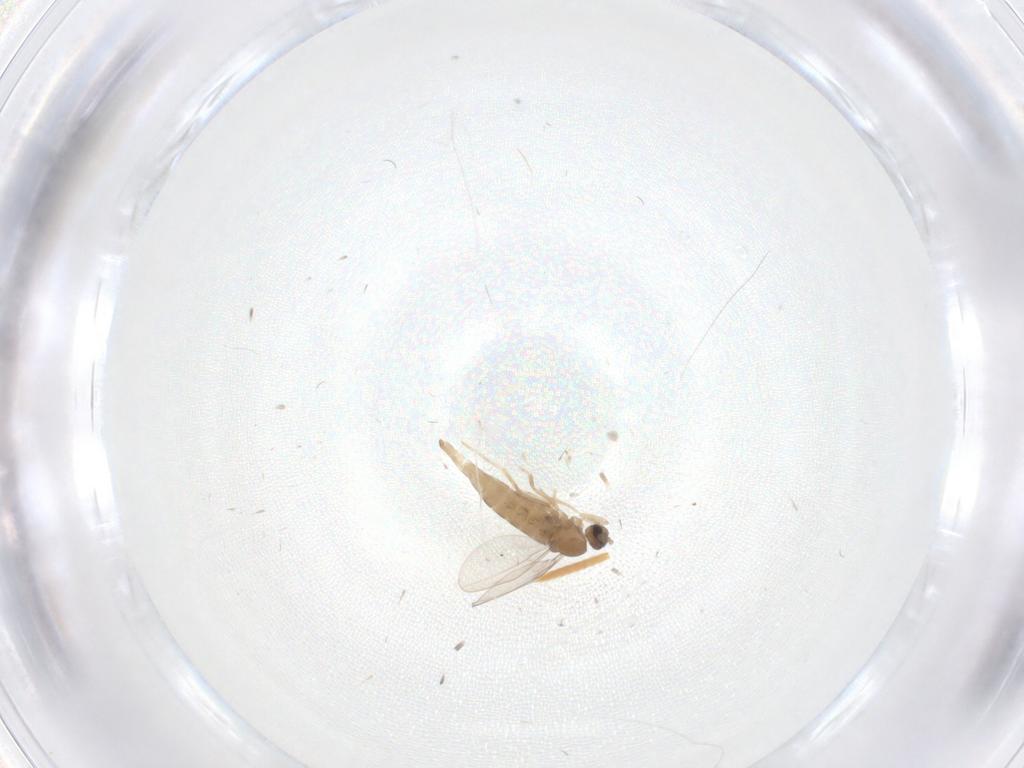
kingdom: Animalia
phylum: Arthropoda
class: Insecta
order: Diptera
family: Cecidomyiidae
